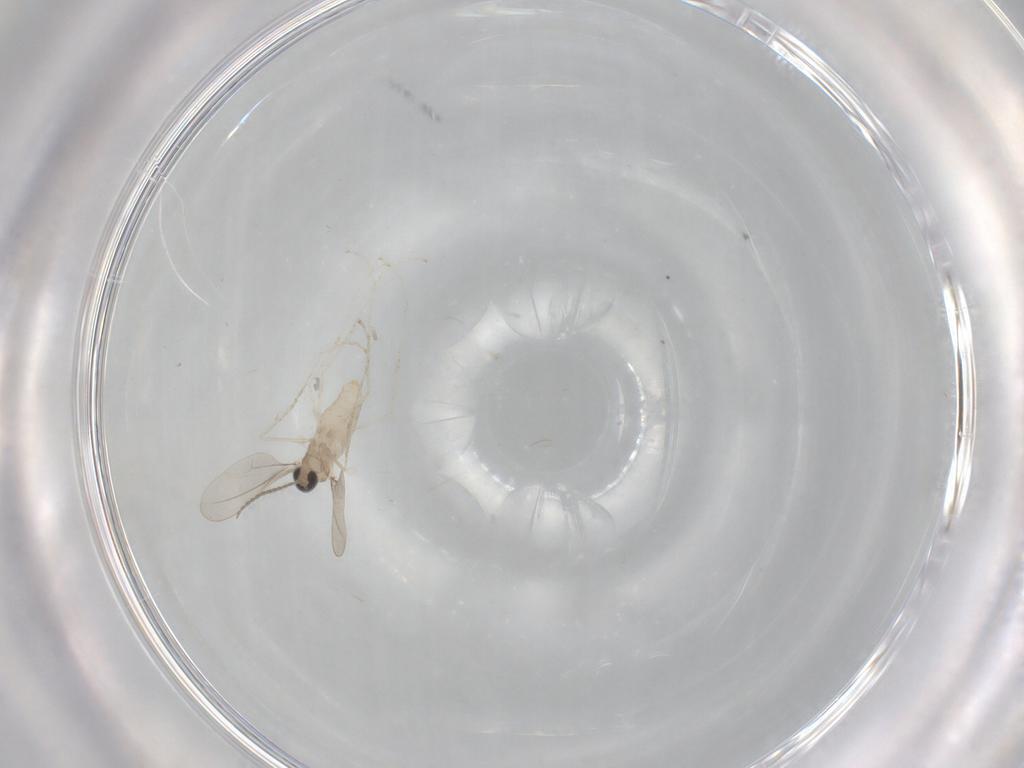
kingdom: Animalia
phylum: Arthropoda
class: Insecta
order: Diptera
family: Cecidomyiidae
